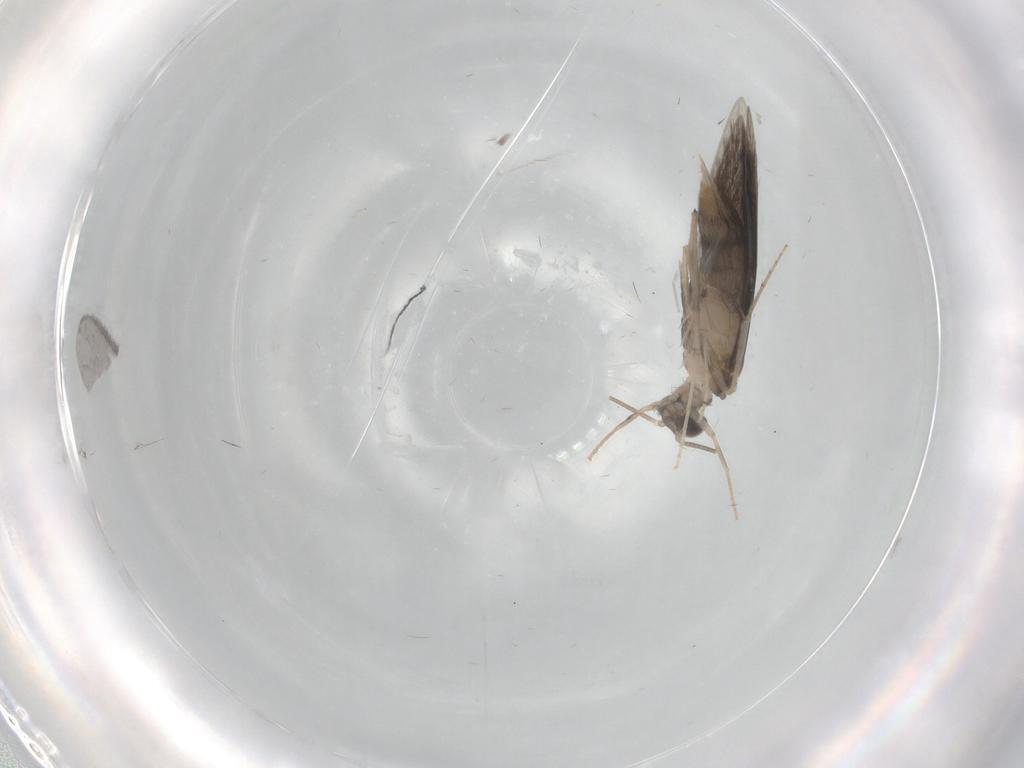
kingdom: Animalia
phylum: Arthropoda
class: Insecta
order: Trichoptera
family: Hydroptilidae
